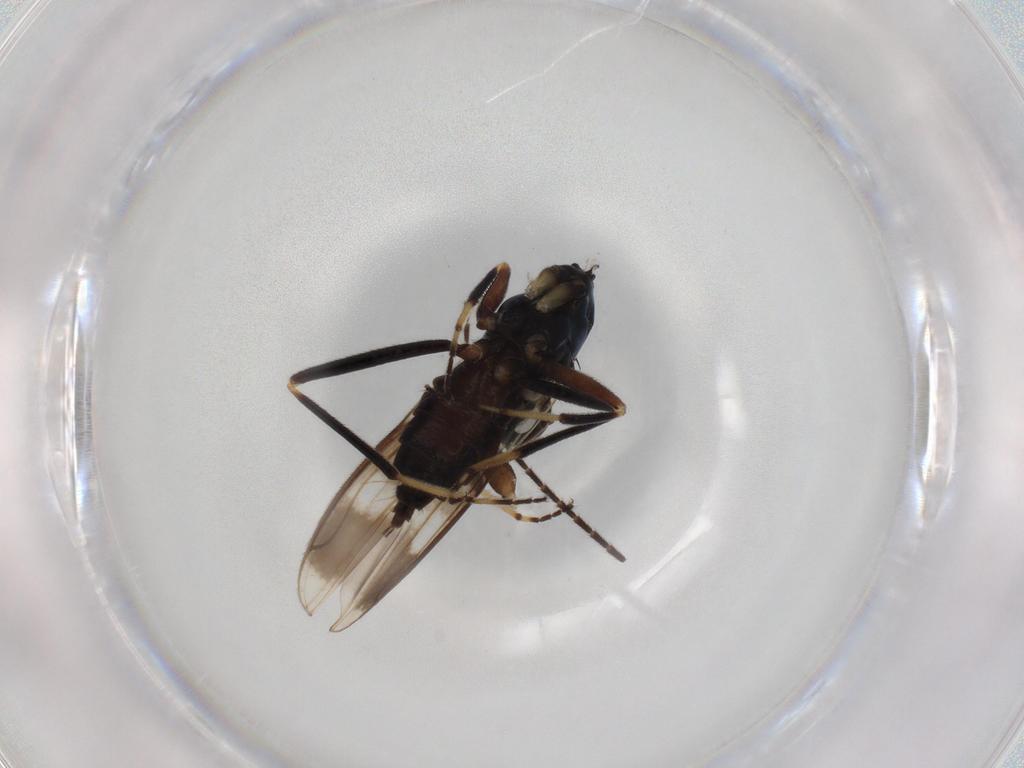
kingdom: Animalia
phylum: Arthropoda
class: Insecta
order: Diptera
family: Hybotidae
